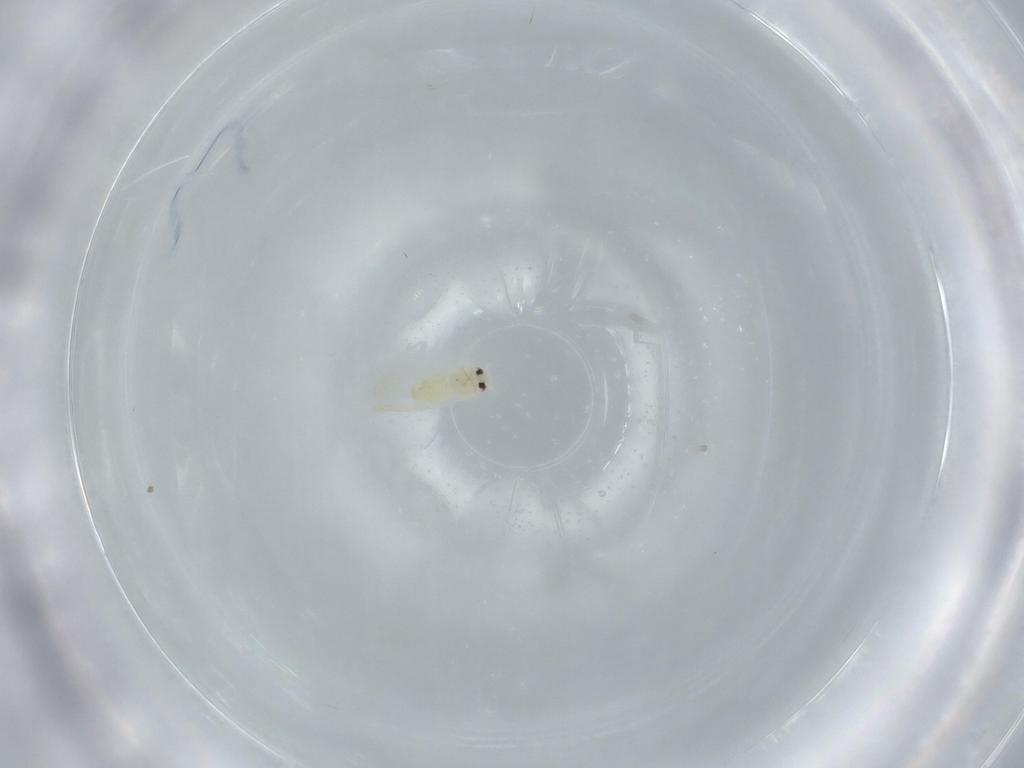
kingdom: Animalia
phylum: Arthropoda
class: Insecta
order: Hemiptera
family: Aleyrodidae
